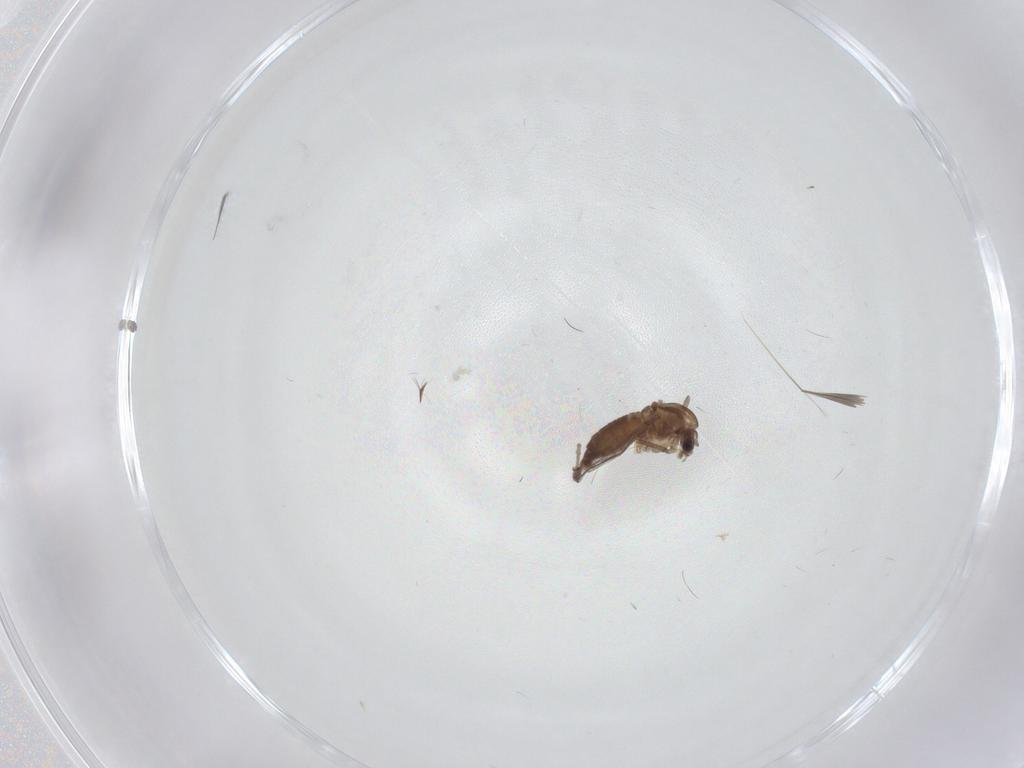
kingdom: Animalia
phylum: Arthropoda
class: Insecta
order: Diptera
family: Chironomidae
